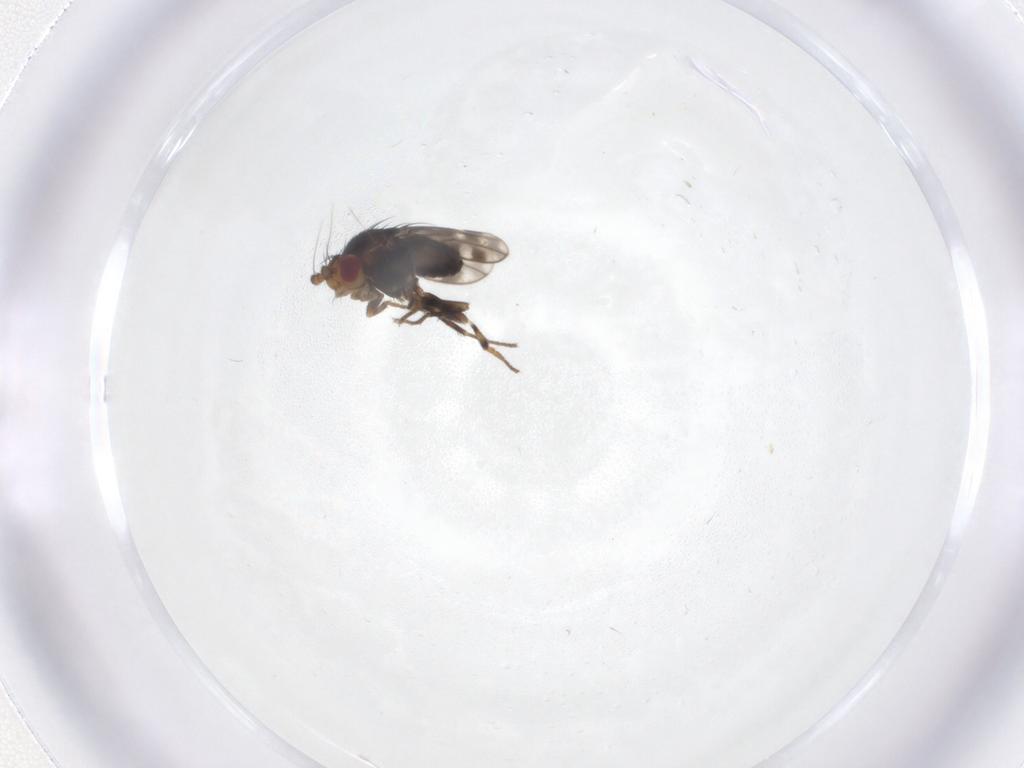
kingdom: Animalia
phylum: Arthropoda
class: Insecta
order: Diptera
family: Sphaeroceridae
